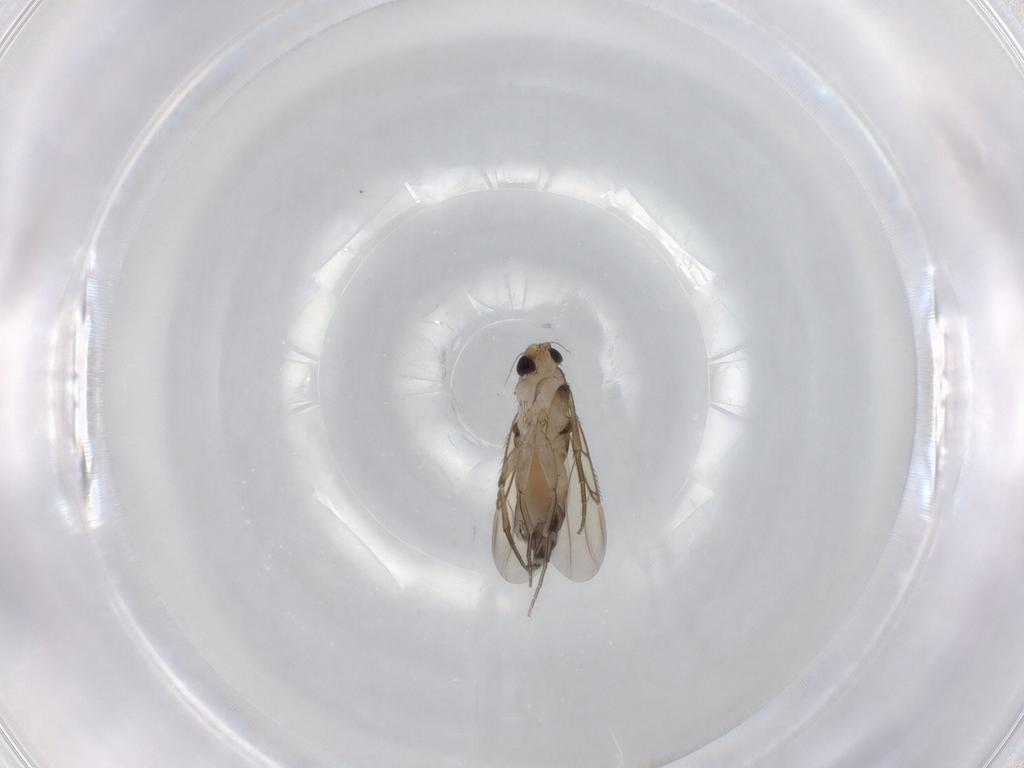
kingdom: Animalia
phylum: Arthropoda
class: Insecta
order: Diptera
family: Phoridae
